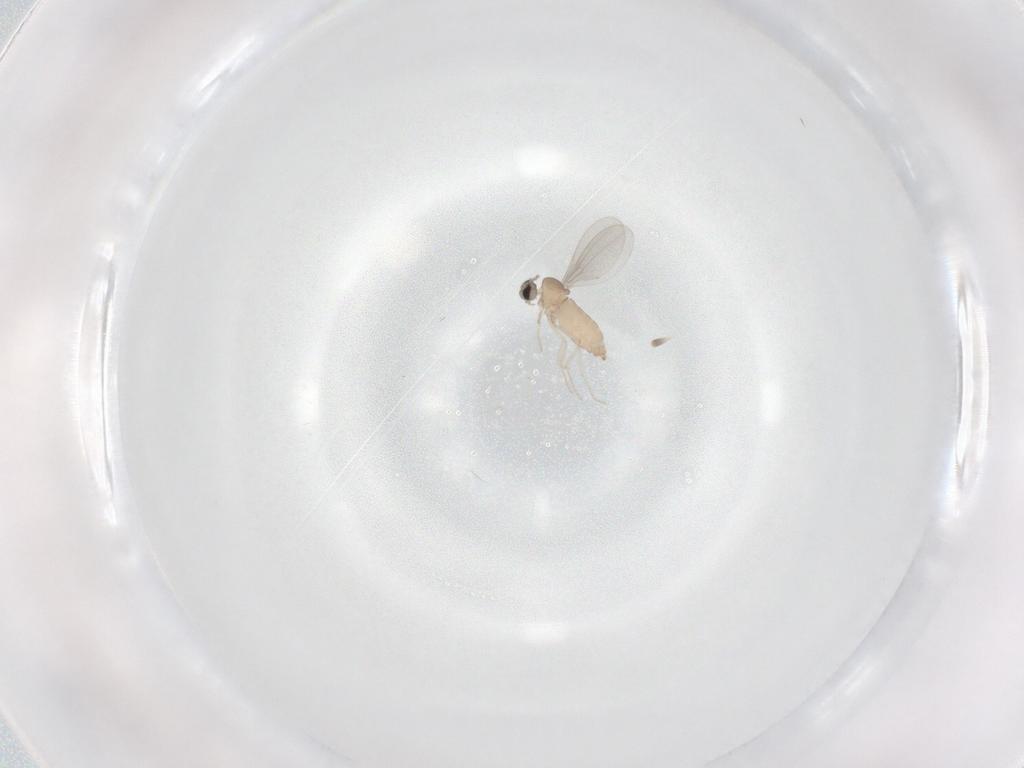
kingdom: Animalia
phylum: Arthropoda
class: Insecta
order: Diptera
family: Cecidomyiidae
